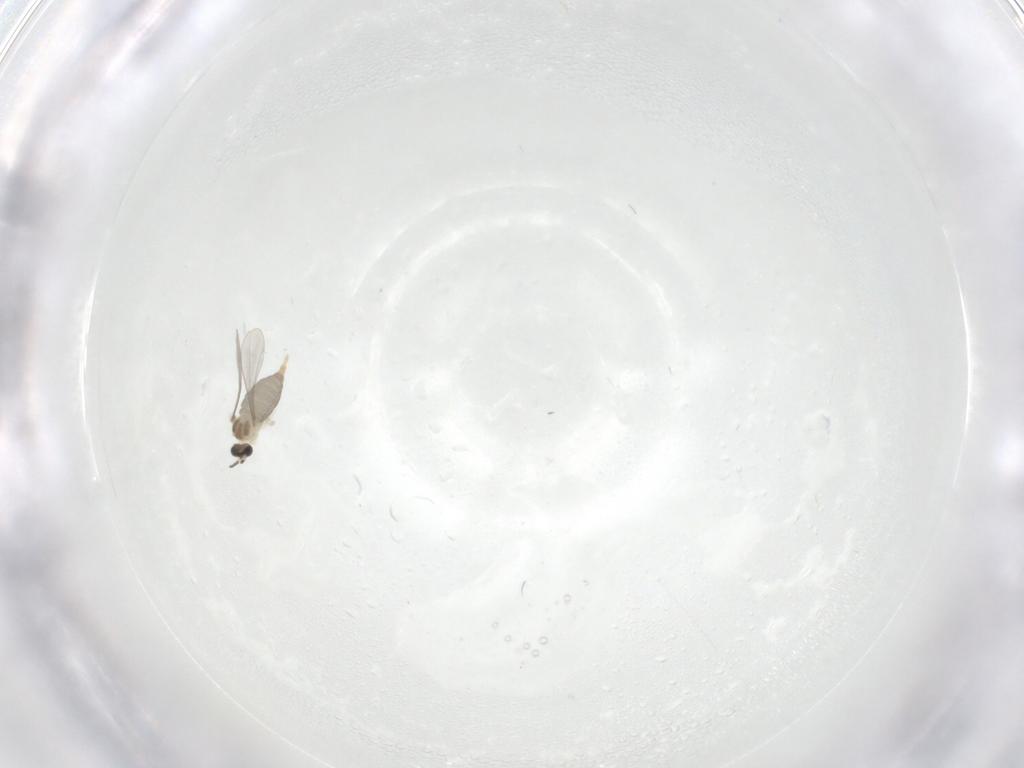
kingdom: Animalia
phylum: Arthropoda
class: Insecta
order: Diptera
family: Cecidomyiidae
